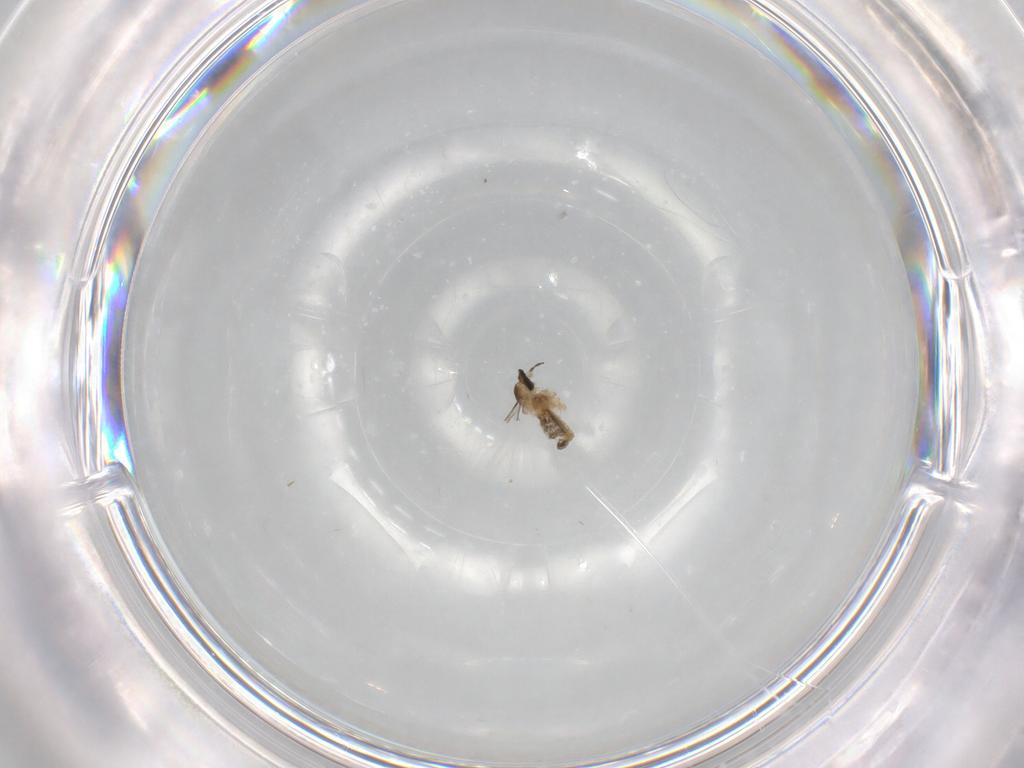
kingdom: Animalia
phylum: Arthropoda
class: Insecta
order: Diptera
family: Cecidomyiidae
